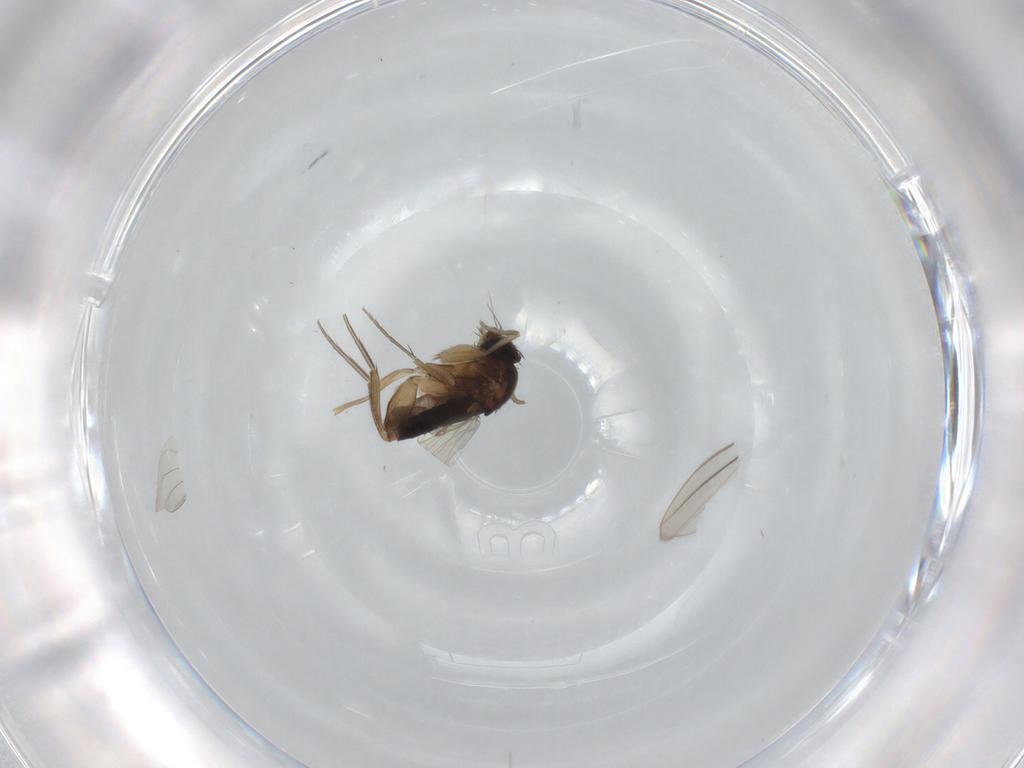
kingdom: Animalia
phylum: Arthropoda
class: Insecta
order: Diptera
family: Phoridae
